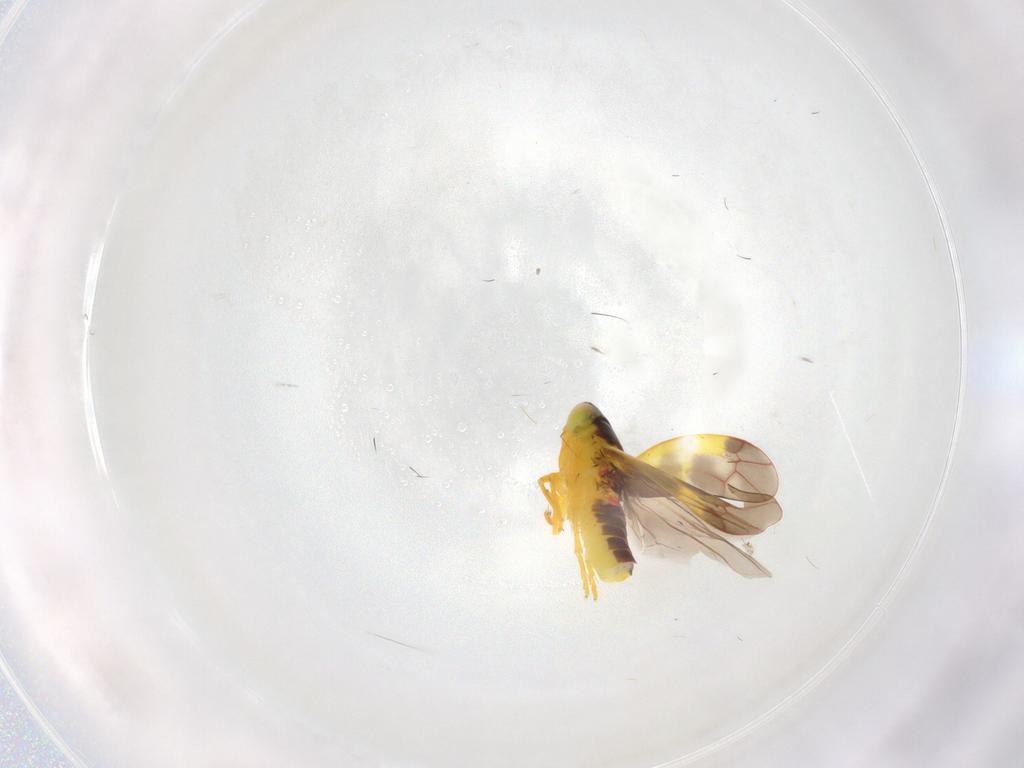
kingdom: Animalia
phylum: Arthropoda
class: Insecta
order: Hemiptera
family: Cicadellidae
